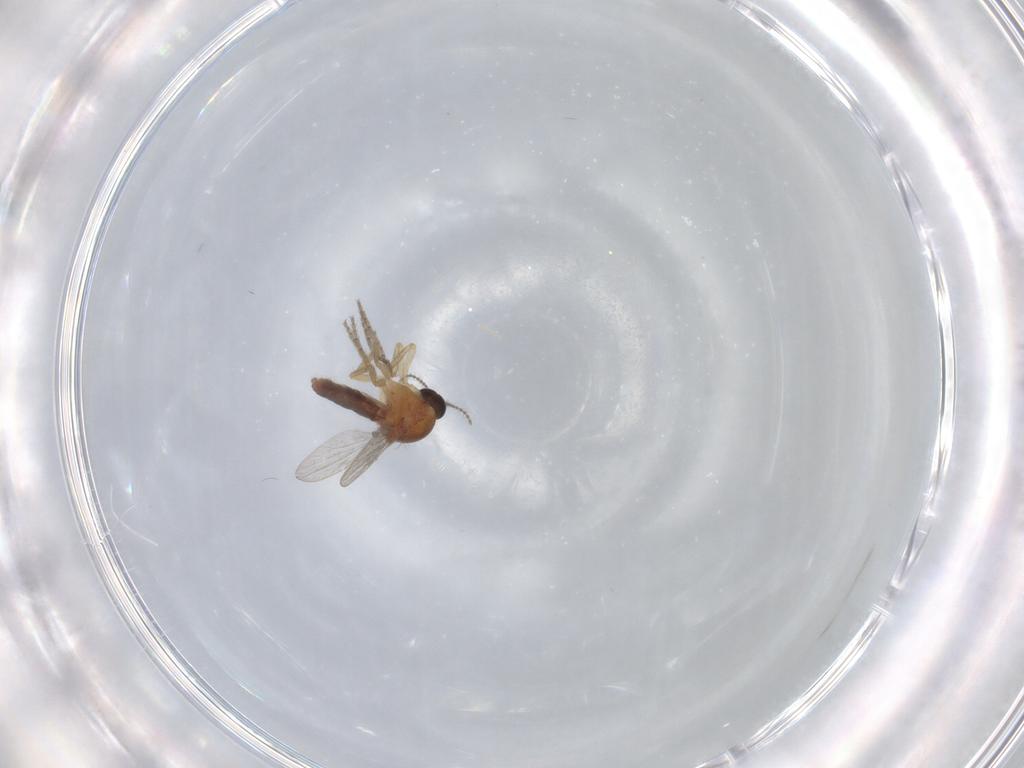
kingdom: Animalia
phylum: Arthropoda
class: Insecta
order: Diptera
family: Ceratopogonidae
